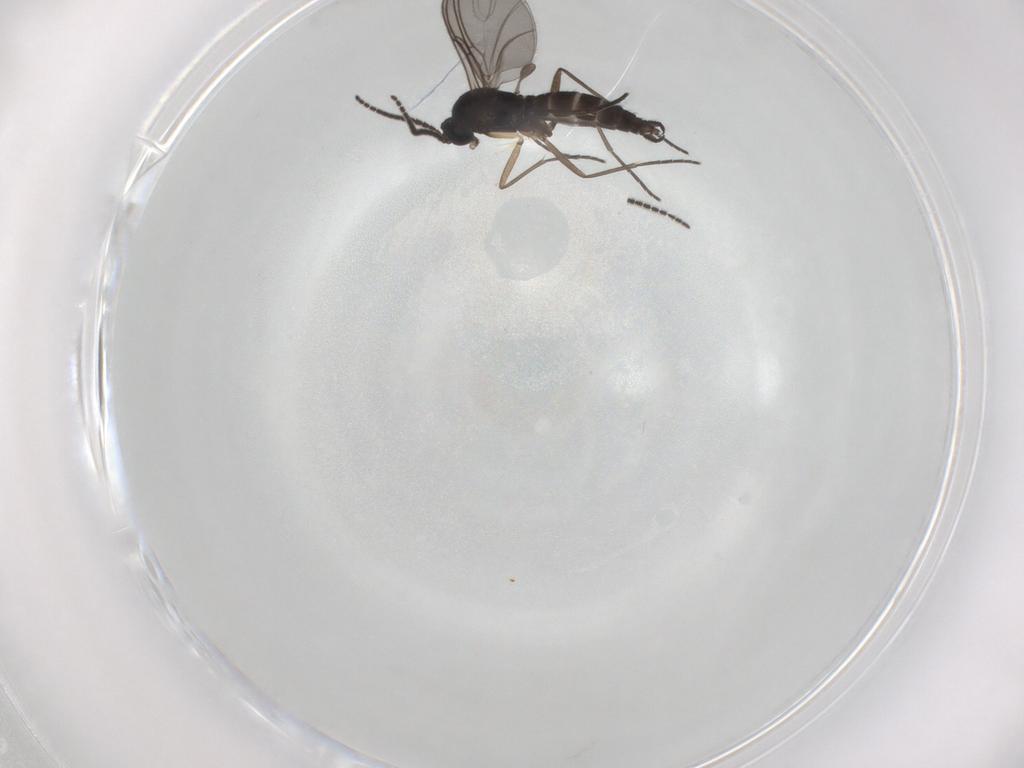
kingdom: Animalia
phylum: Arthropoda
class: Insecta
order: Diptera
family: Sciaridae
